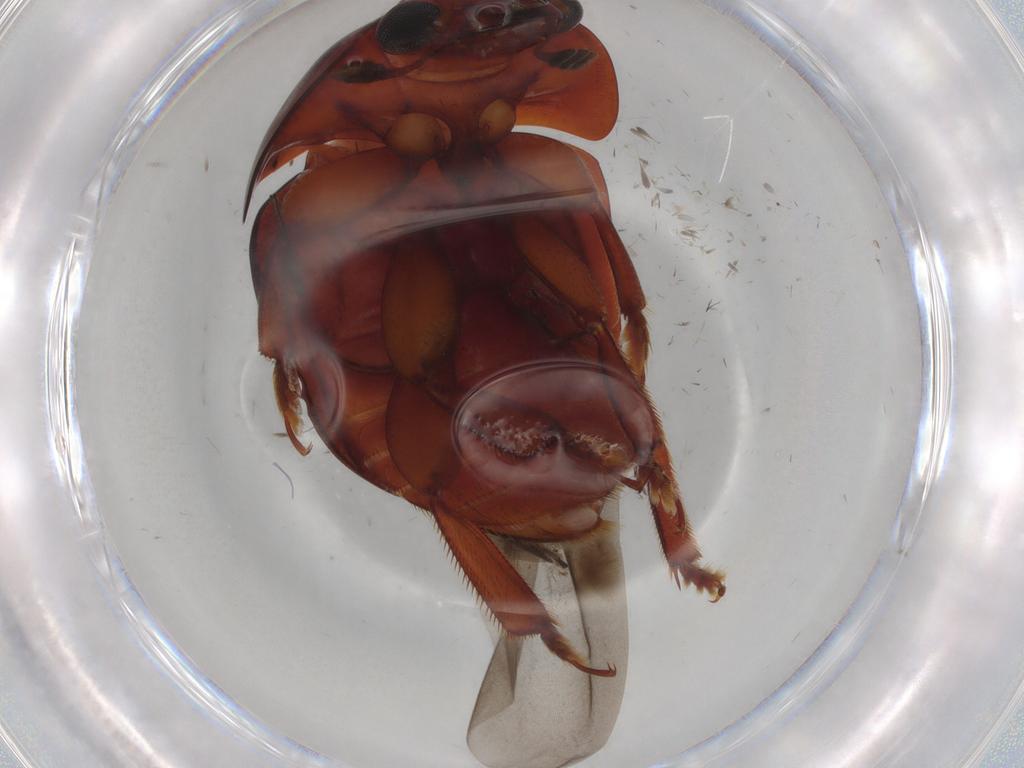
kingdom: Animalia
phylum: Arthropoda
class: Insecta
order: Coleoptera
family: Nitidulidae
